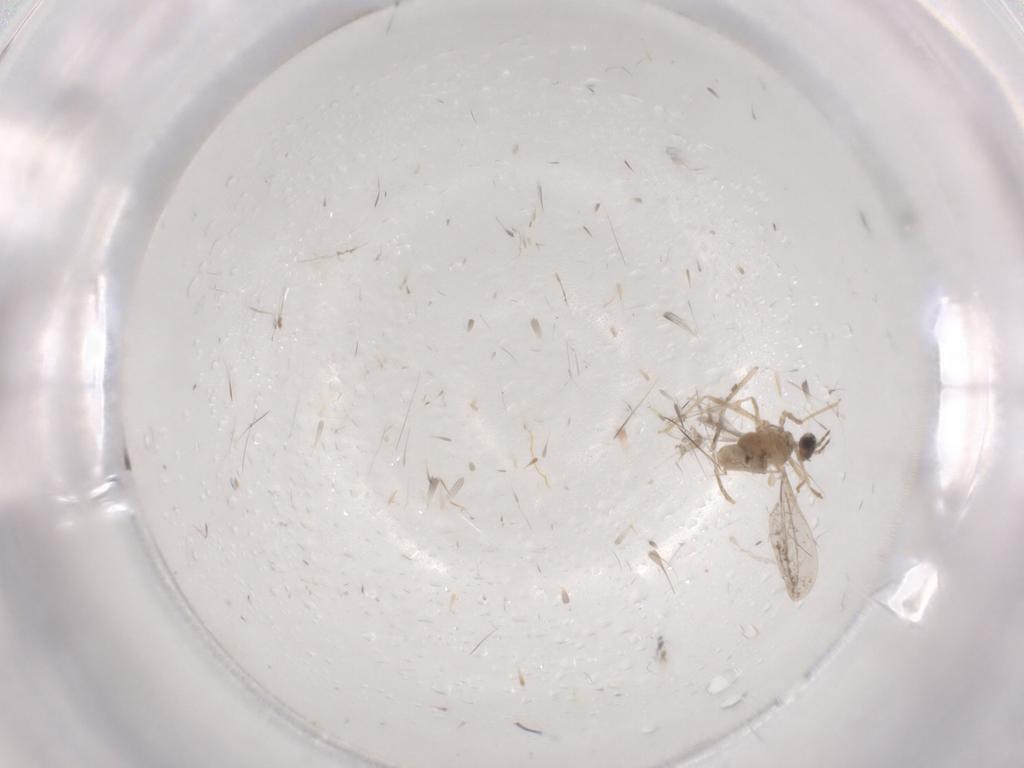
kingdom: Animalia
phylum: Arthropoda
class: Insecta
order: Diptera
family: Cecidomyiidae
